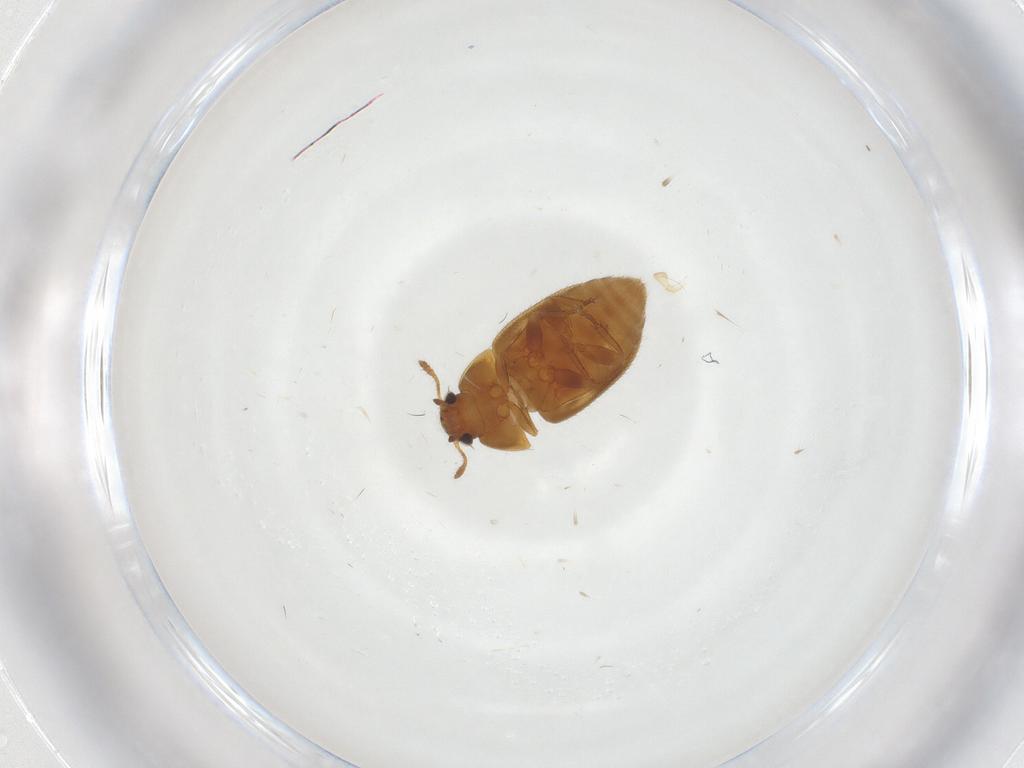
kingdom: Animalia
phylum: Arthropoda
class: Insecta
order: Coleoptera
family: Mycetophagidae
